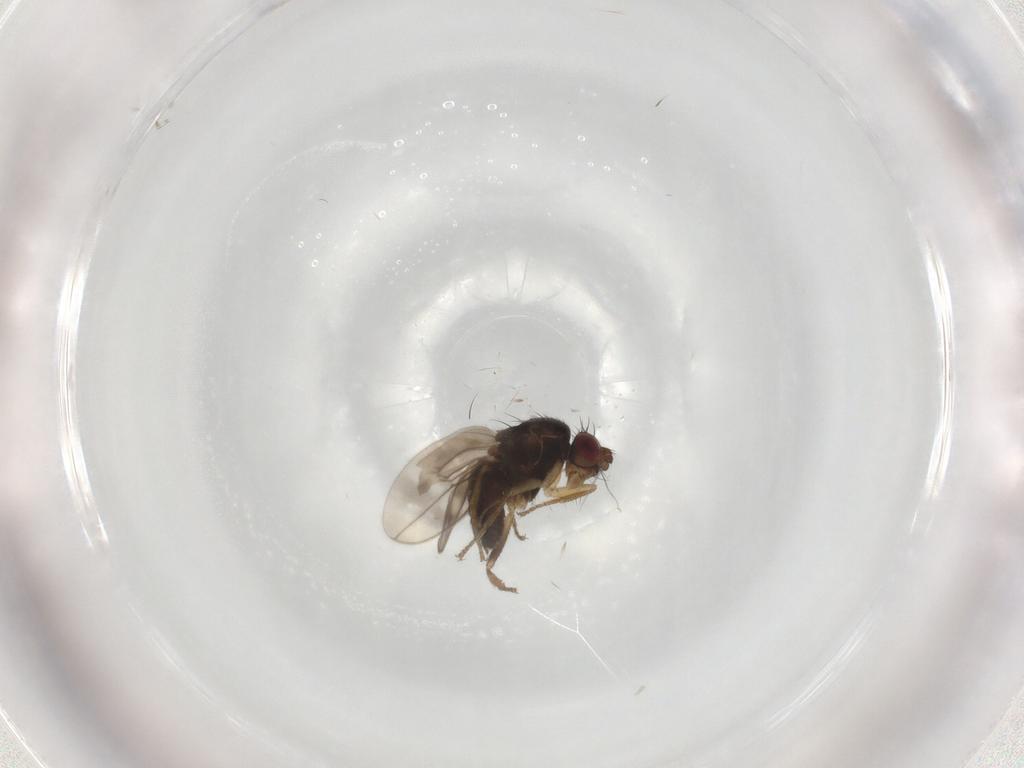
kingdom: Animalia
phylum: Arthropoda
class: Insecta
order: Diptera
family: Sphaeroceridae
